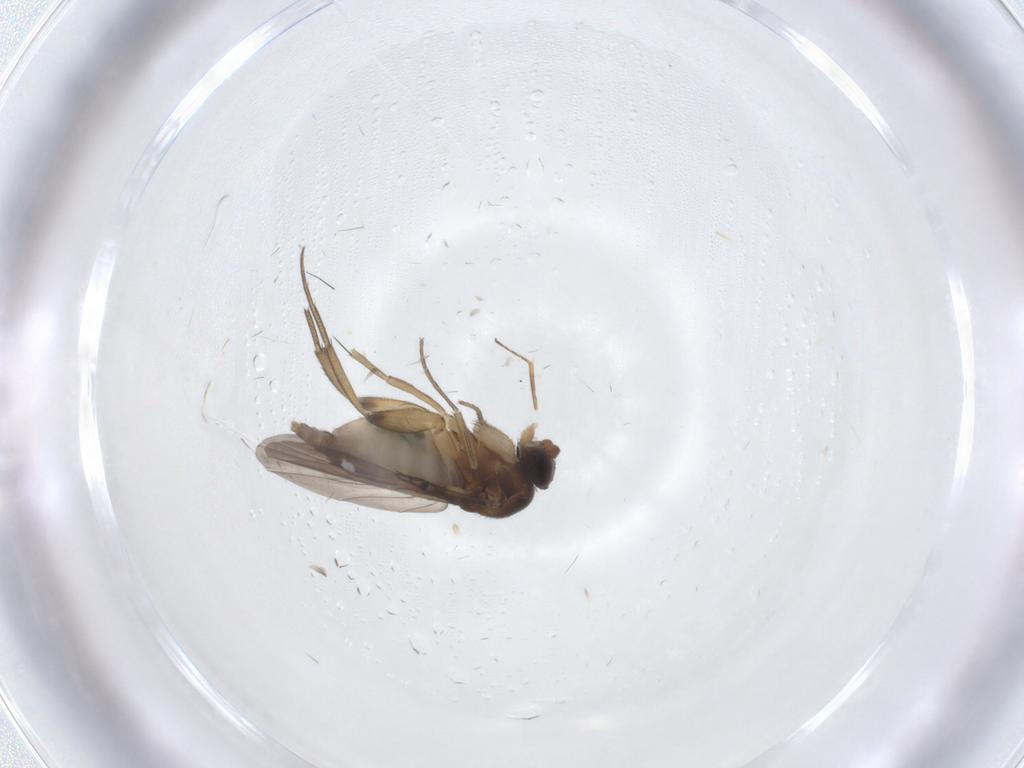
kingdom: Animalia
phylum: Arthropoda
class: Insecta
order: Diptera
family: Phoridae
